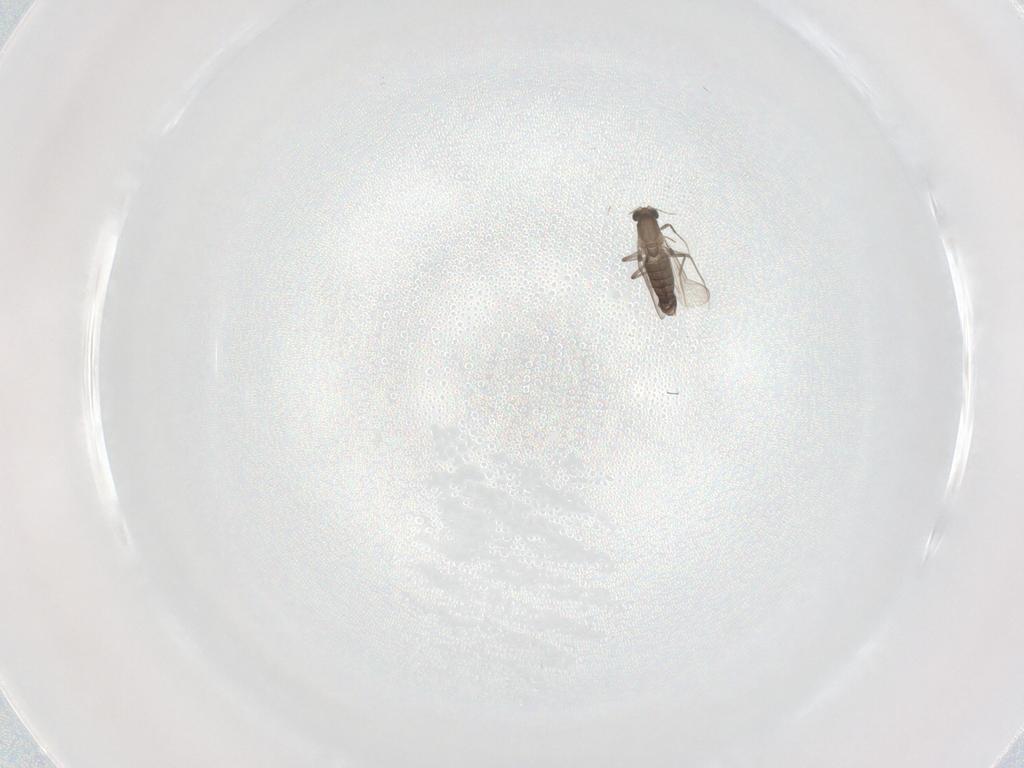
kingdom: Animalia
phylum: Arthropoda
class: Insecta
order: Diptera
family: Chironomidae
